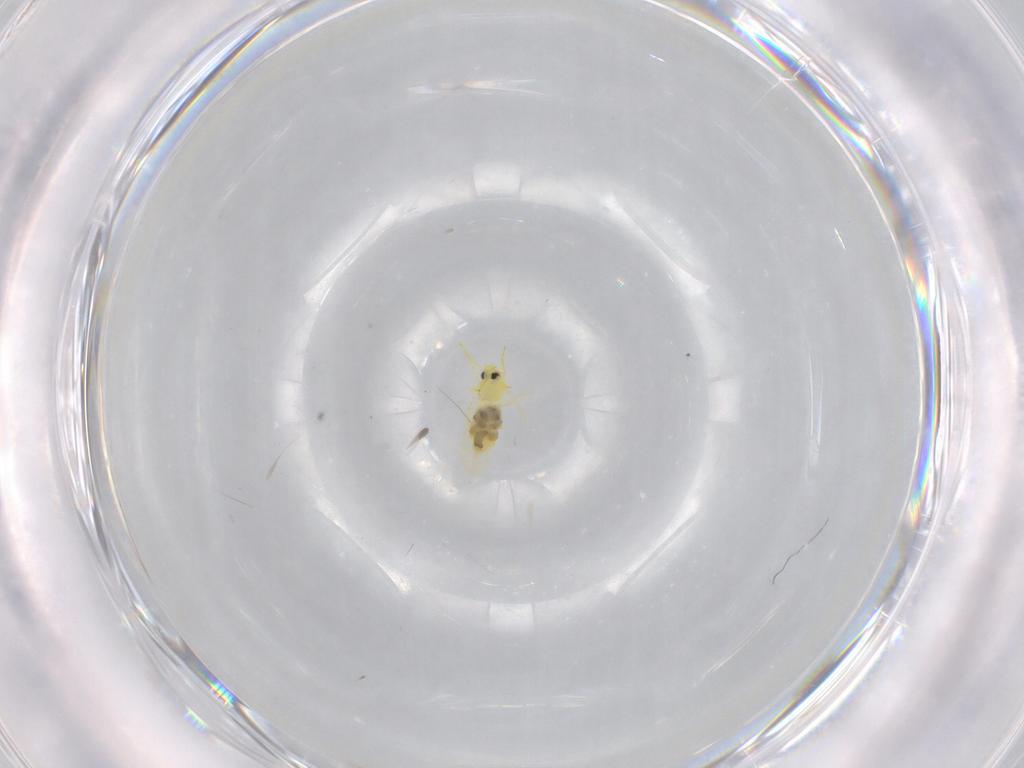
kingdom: Animalia
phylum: Arthropoda
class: Insecta
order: Hemiptera
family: Aleyrodidae
